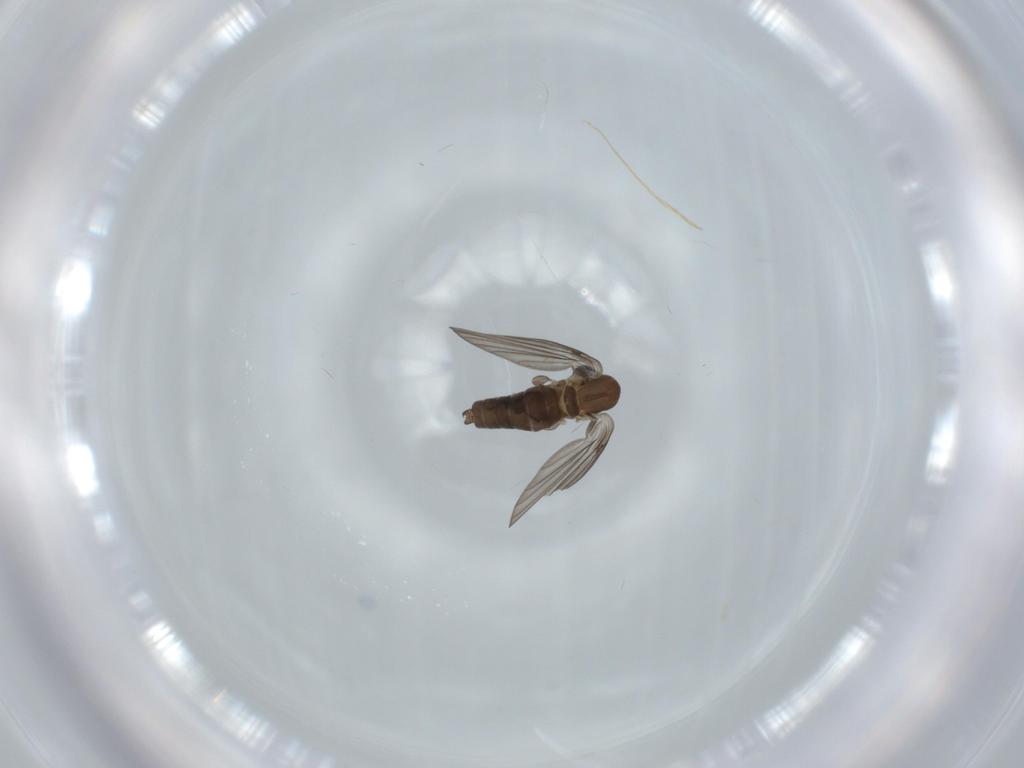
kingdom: Animalia
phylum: Arthropoda
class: Insecta
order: Diptera
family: Psychodidae
